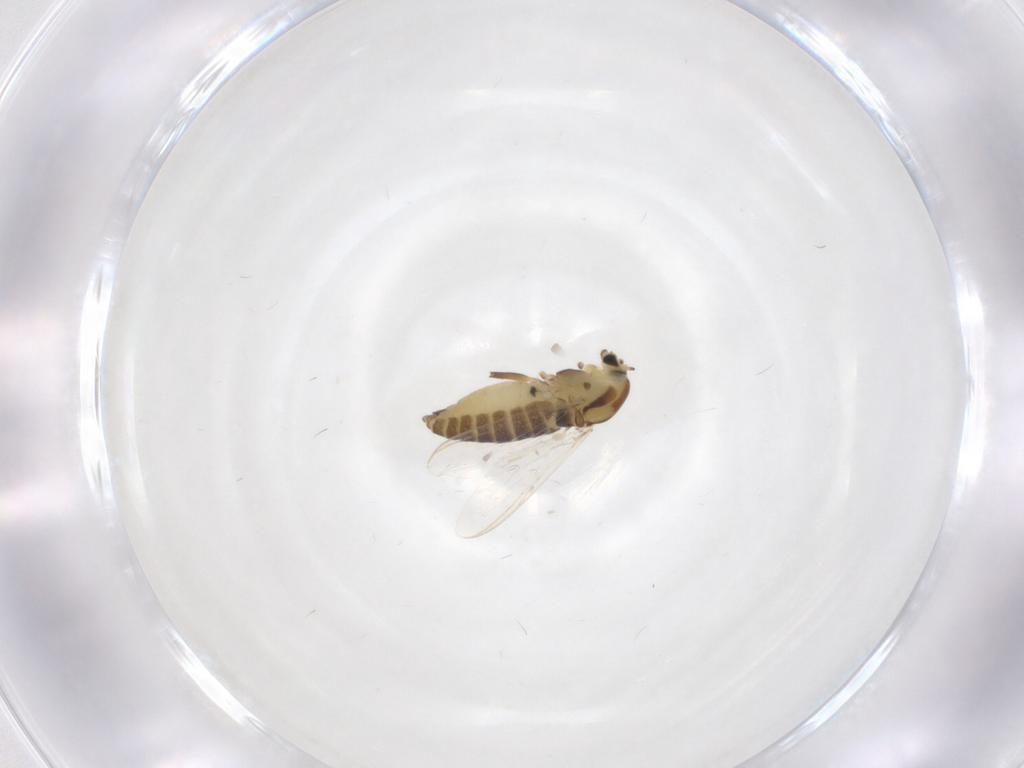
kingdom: Animalia
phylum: Arthropoda
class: Insecta
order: Diptera
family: Chironomidae
